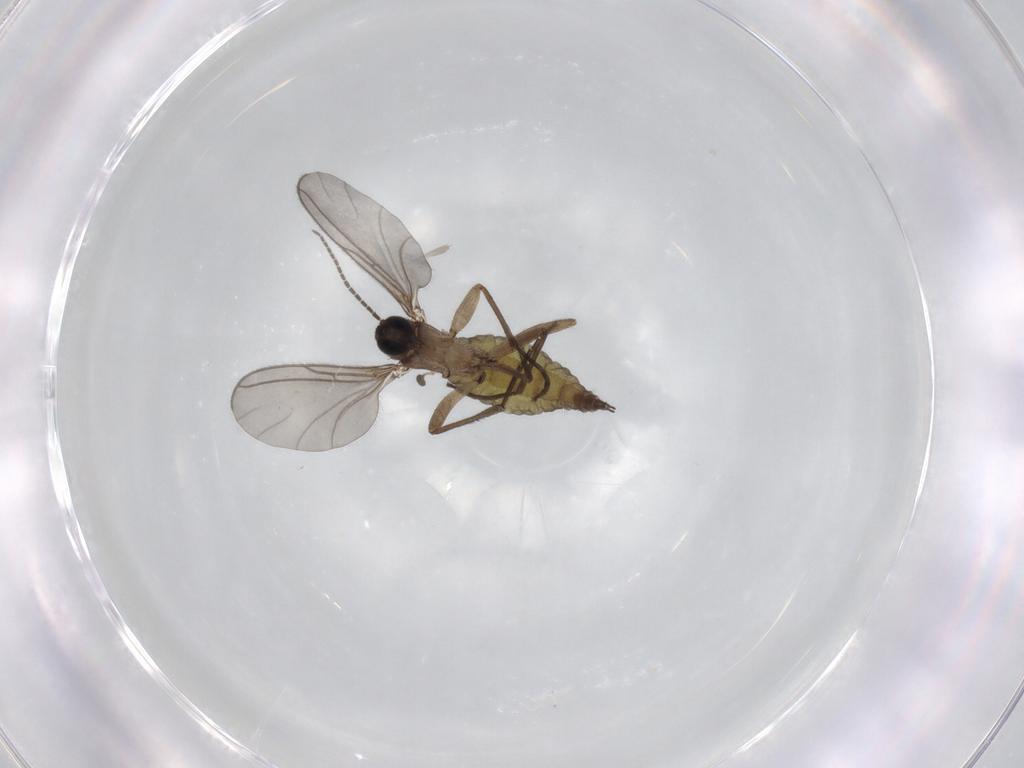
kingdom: Animalia
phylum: Arthropoda
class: Insecta
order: Diptera
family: Sciaridae
